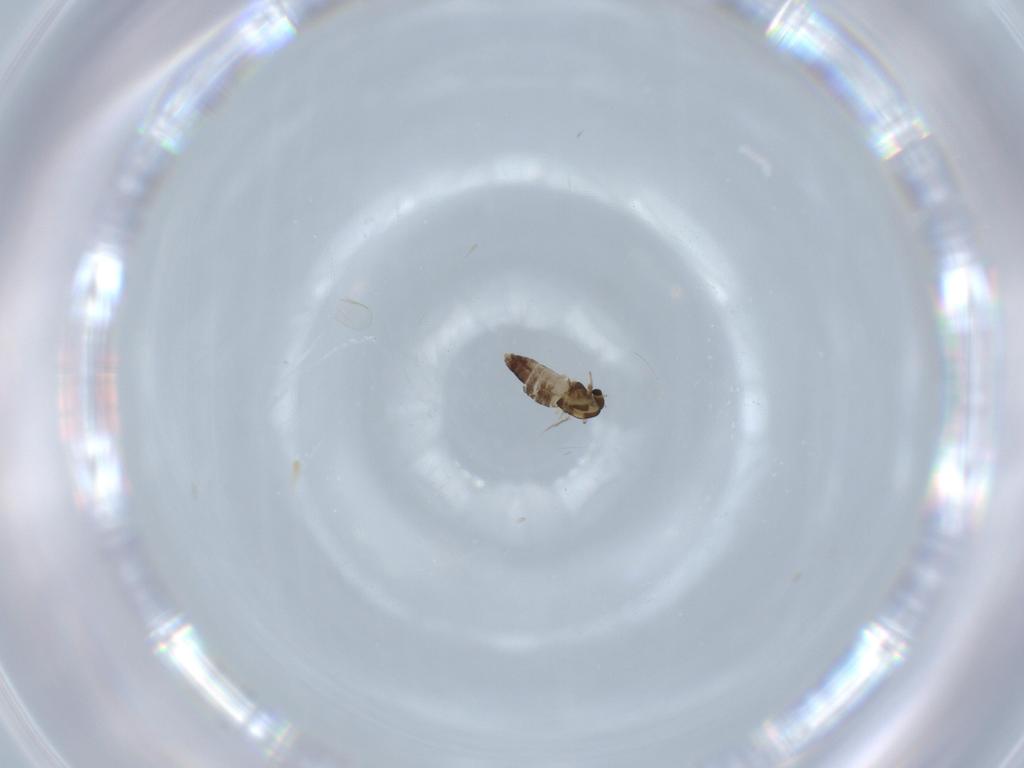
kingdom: Animalia
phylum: Arthropoda
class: Insecta
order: Diptera
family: Chironomidae
